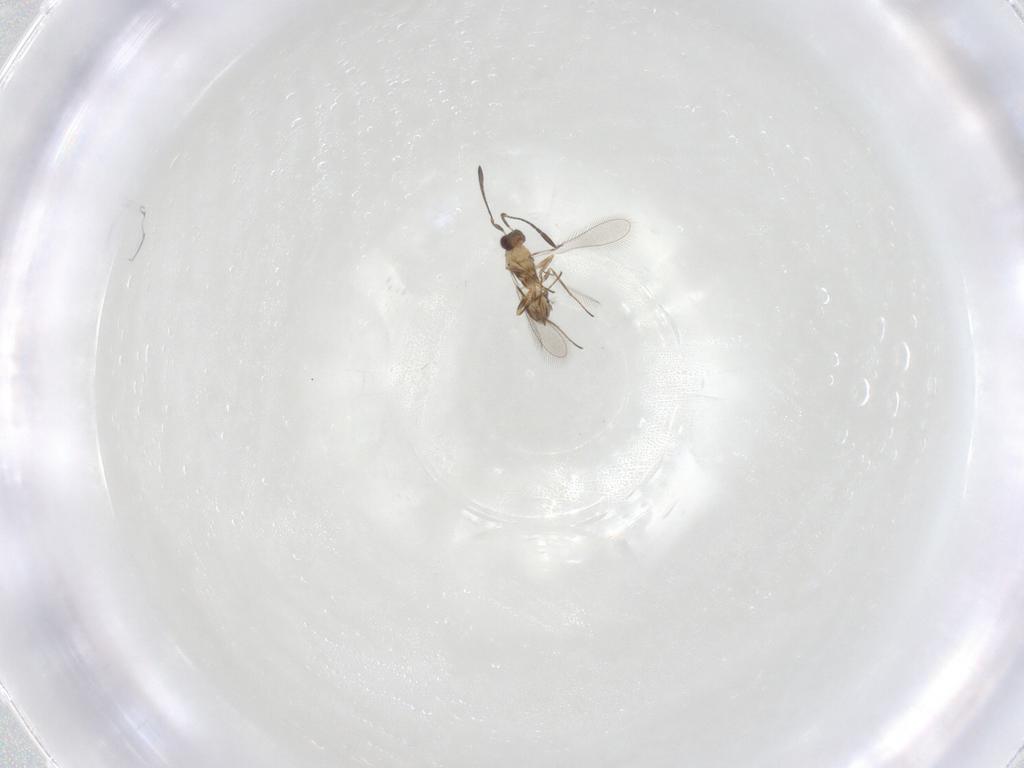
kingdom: Animalia
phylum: Arthropoda
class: Insecta
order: Hymenoptera
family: Mymaridae
